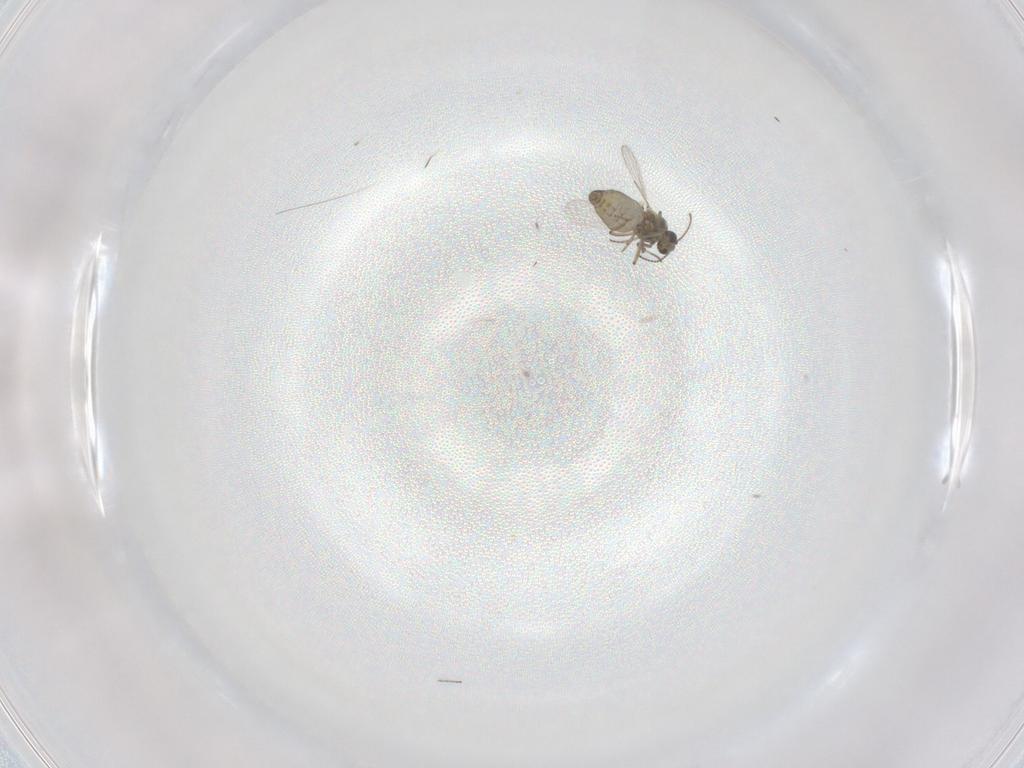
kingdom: Animalia
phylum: Arthropoda
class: Insecta
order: Diptera
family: Ceratopogonidae
